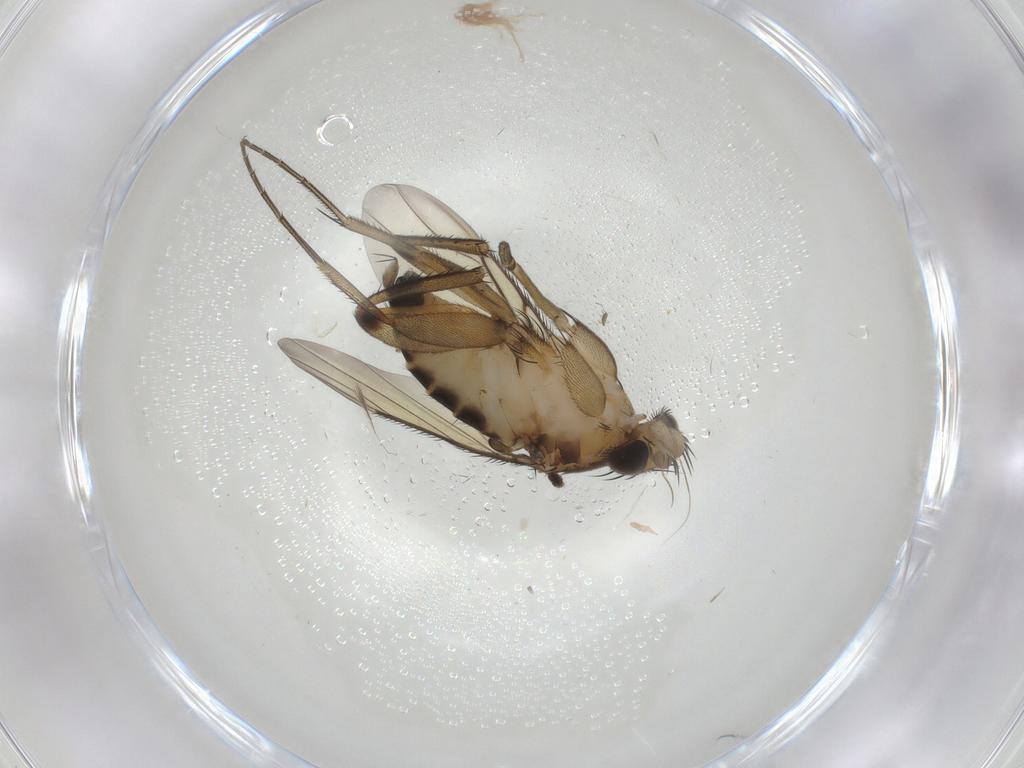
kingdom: Animalia
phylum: Arthropoda
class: Insecta
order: Diptera
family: Phoridae
